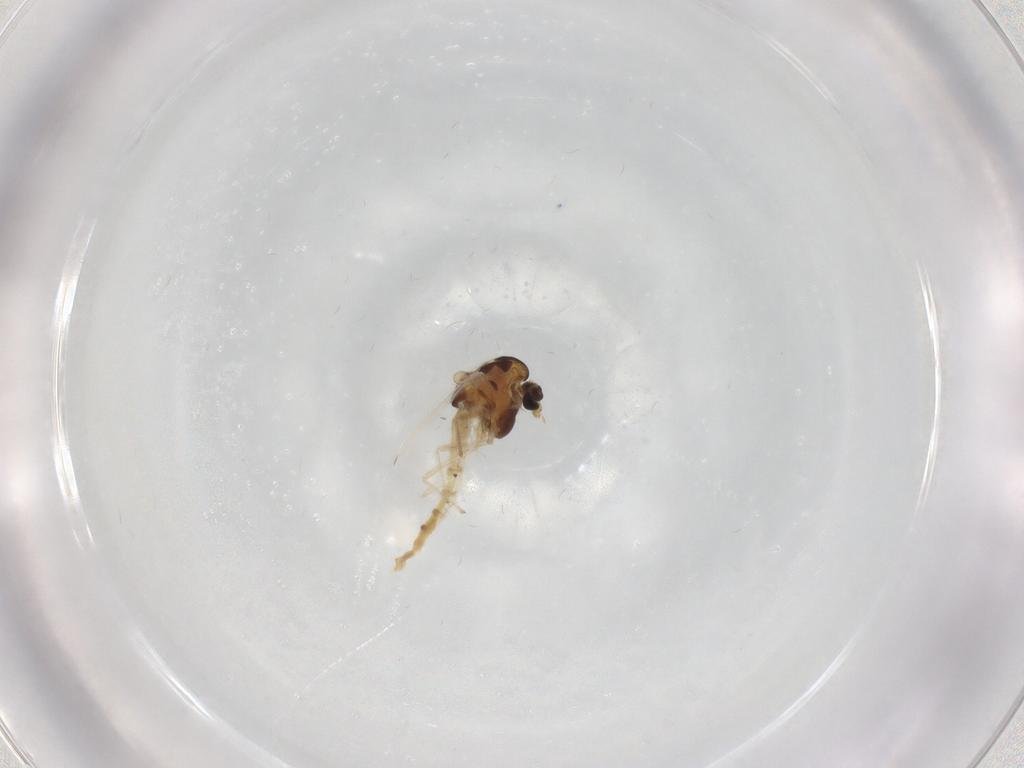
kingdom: Animalia
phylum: Arthropoda
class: Insecta
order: Diptera
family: Chironomidae
